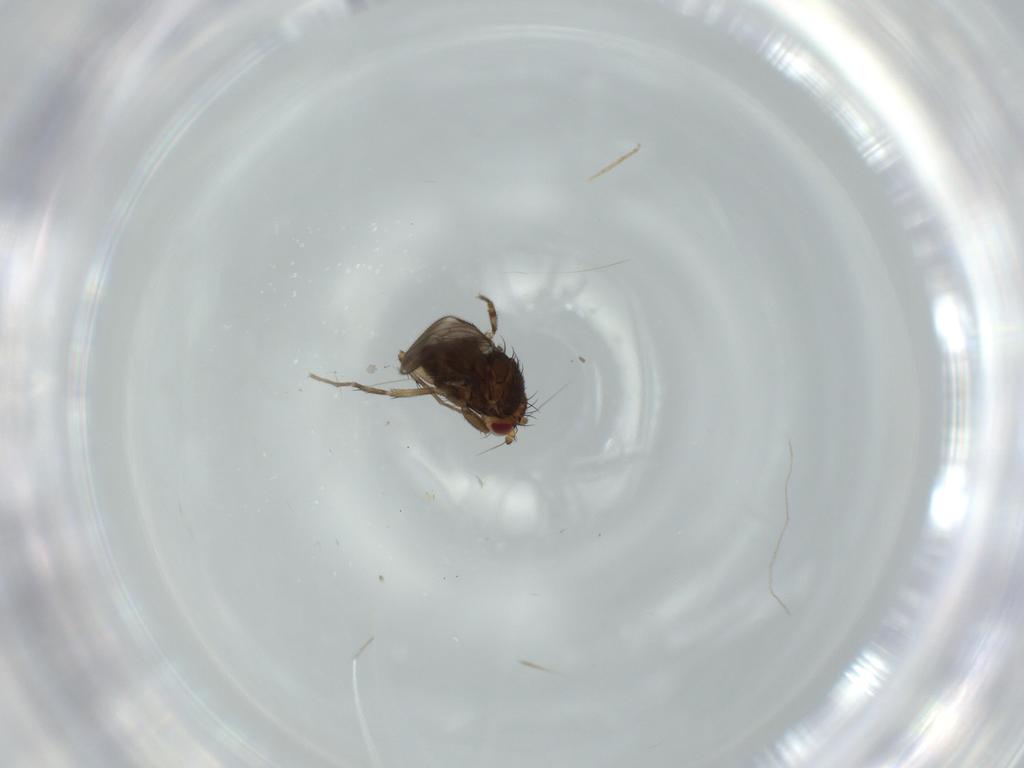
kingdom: Animalia
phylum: Arthropoda
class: Insecta
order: Diptera
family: Sphaeroceridae
